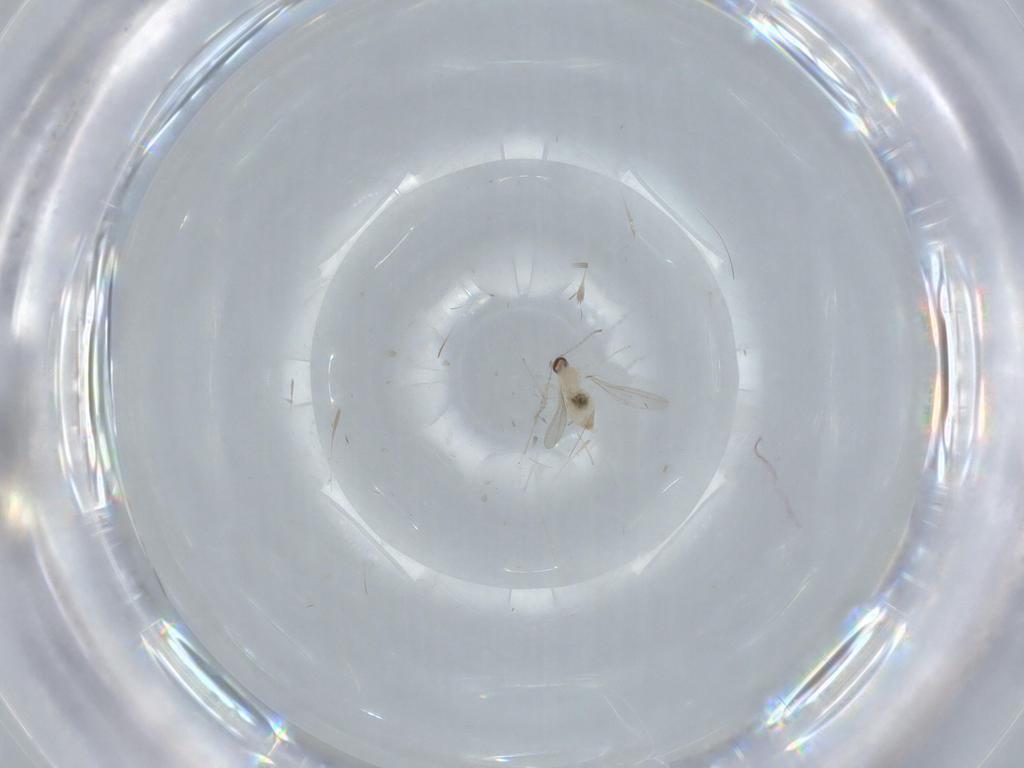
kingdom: Animalia
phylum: Arthropoda
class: Insecta
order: Diptera
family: Cecidomyiidae
